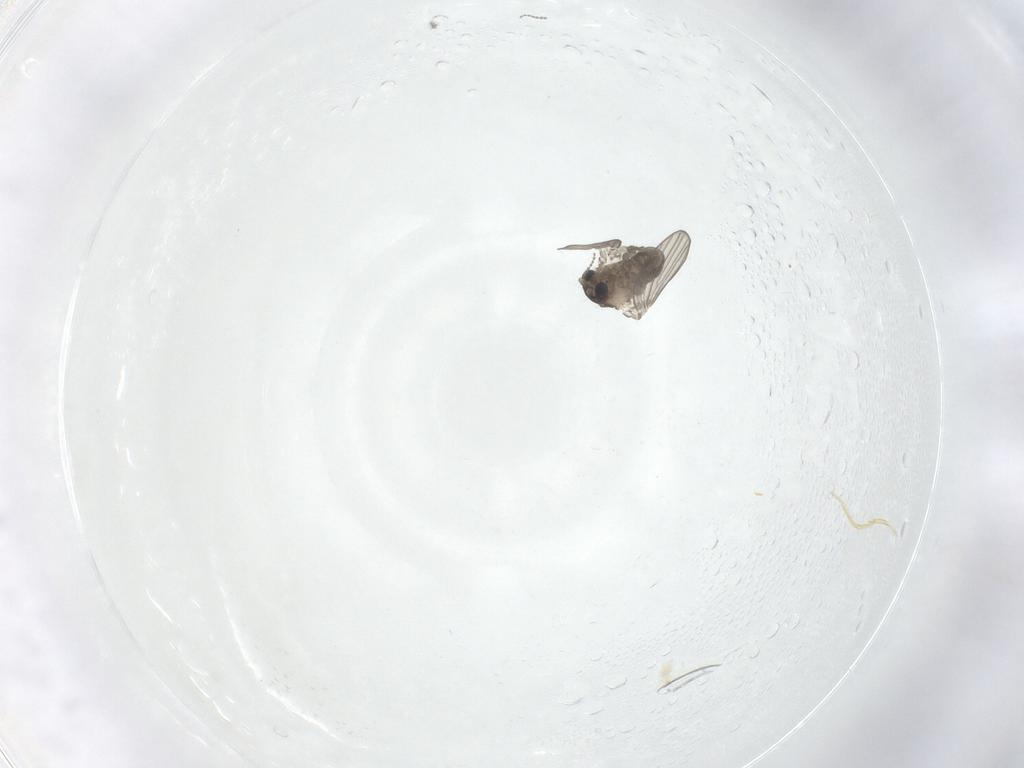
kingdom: Animalia
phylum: Arthropoda
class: Insecta
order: Diptera
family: Psychodidae
